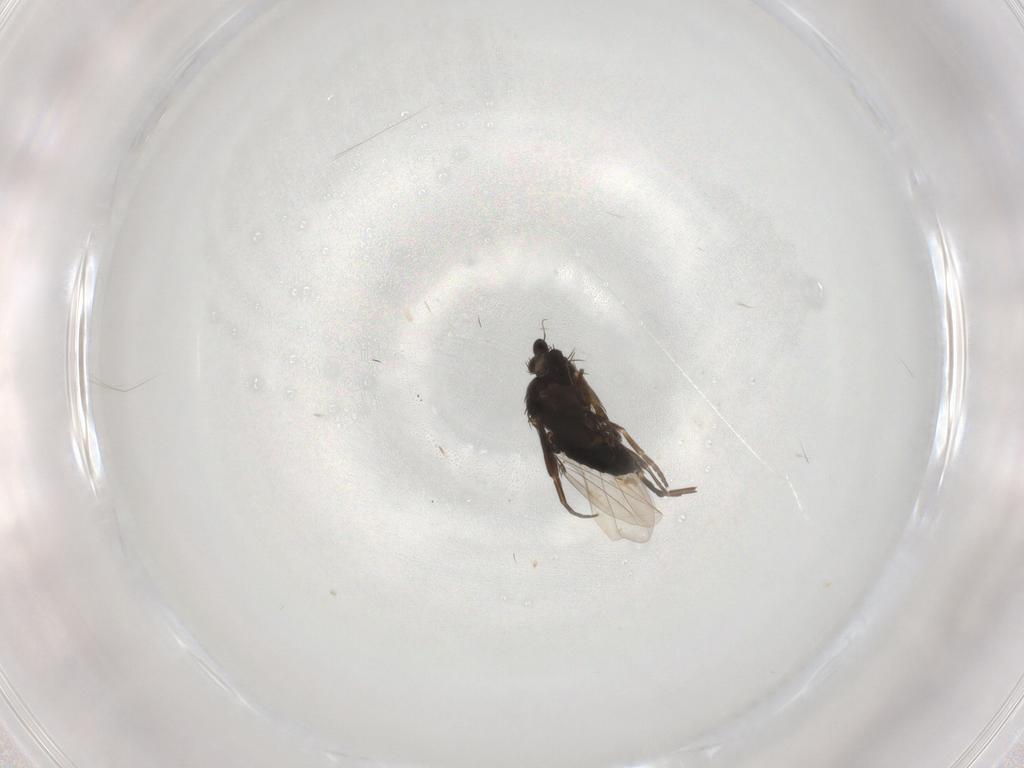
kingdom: Animalia
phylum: Arthropoda
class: Insecta
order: Diptera
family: Phoridae
